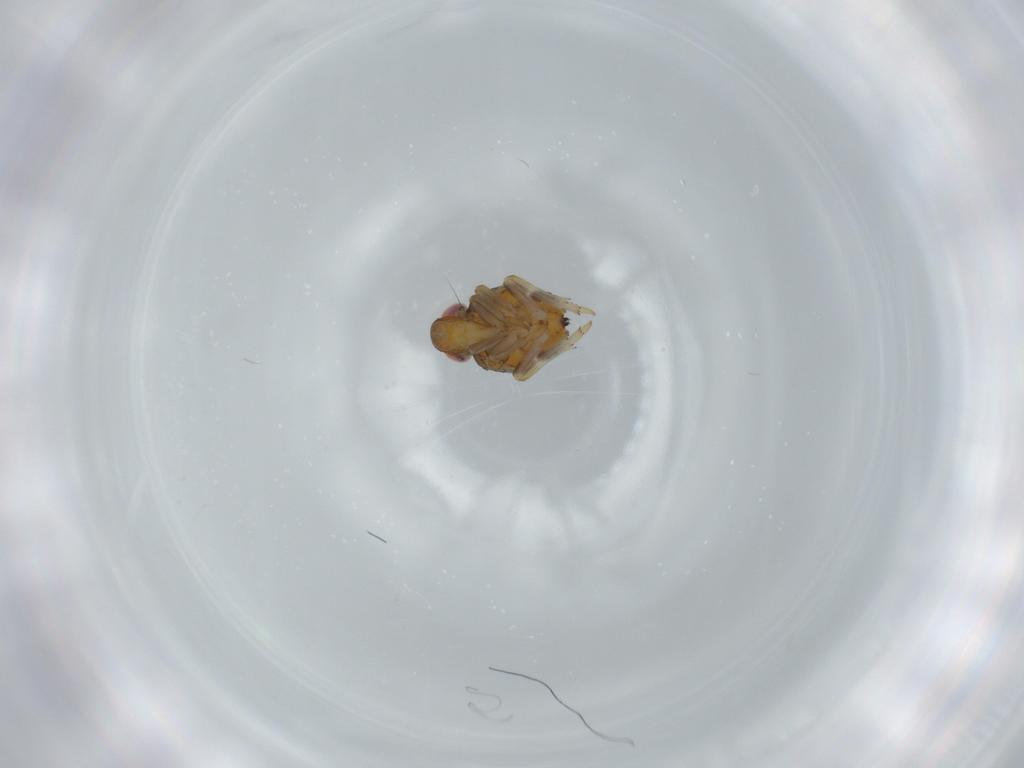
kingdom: Animalia
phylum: Arthropoda
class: Insecta
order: Hemiptera
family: Issidae
